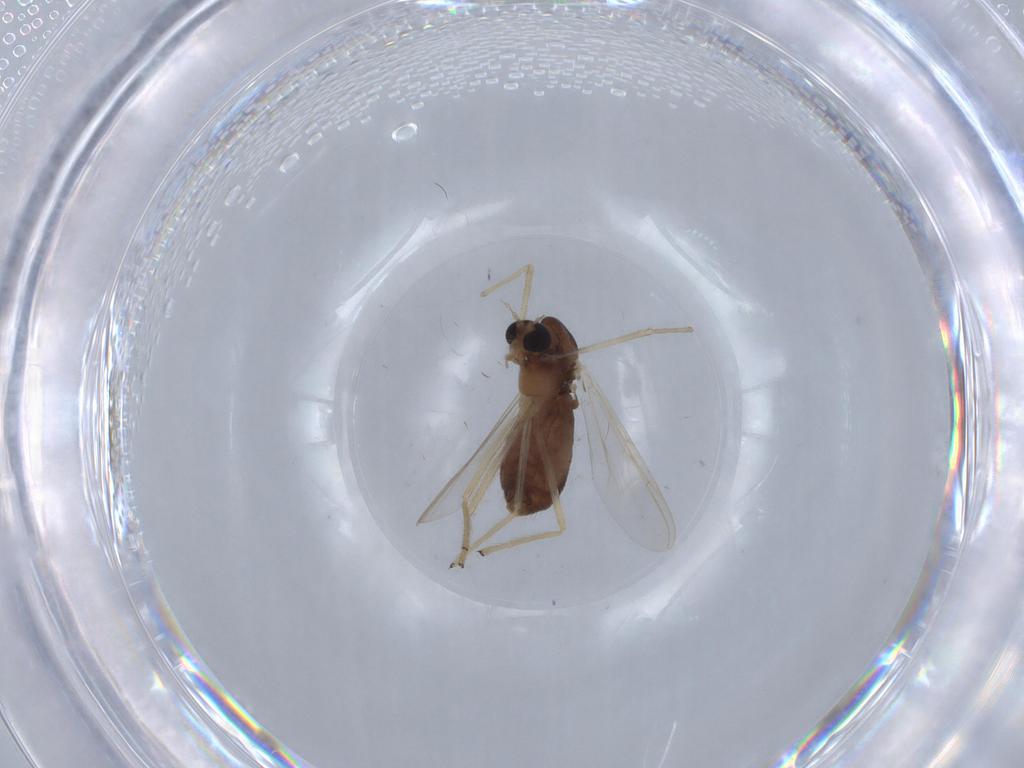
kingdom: Animalia
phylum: Arthropoda
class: Insecta
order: Diptera
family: Chironomidae
